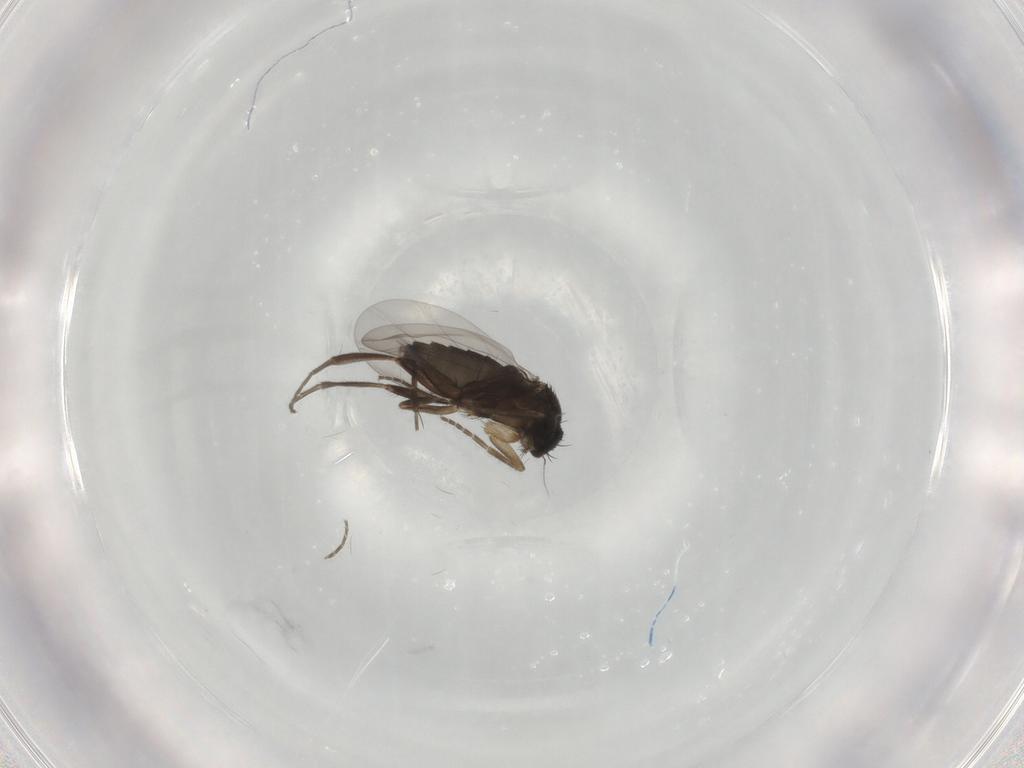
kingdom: Animalia
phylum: Arthropoda
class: Insecta
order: Diptera
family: Phoridae
